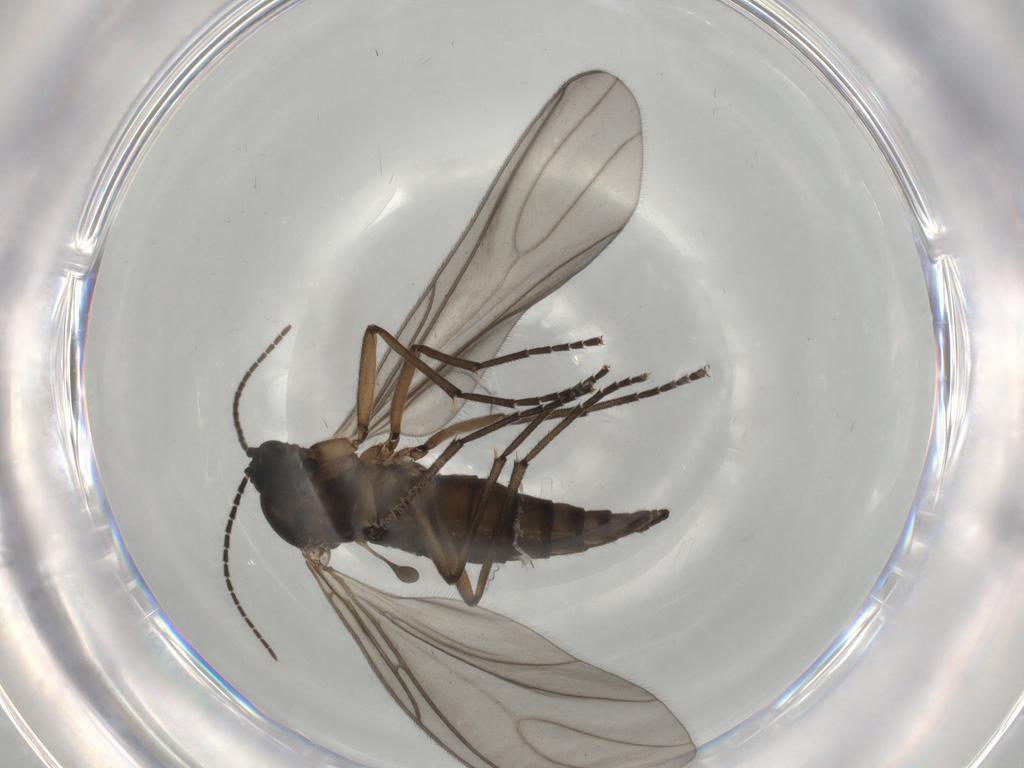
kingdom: Animalia
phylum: Arthropoda
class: Insecta
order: Diptera
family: Sciaridae
